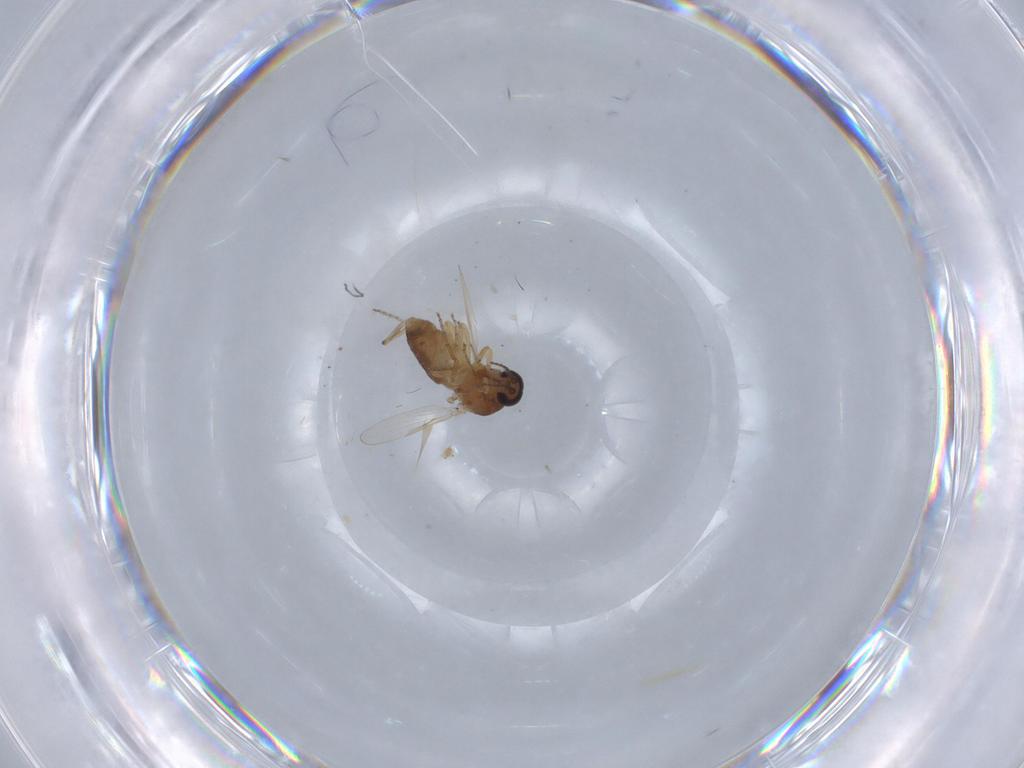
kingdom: Animalia
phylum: Arthropoda
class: Insecta
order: Diptera
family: Ceratopogonidae
